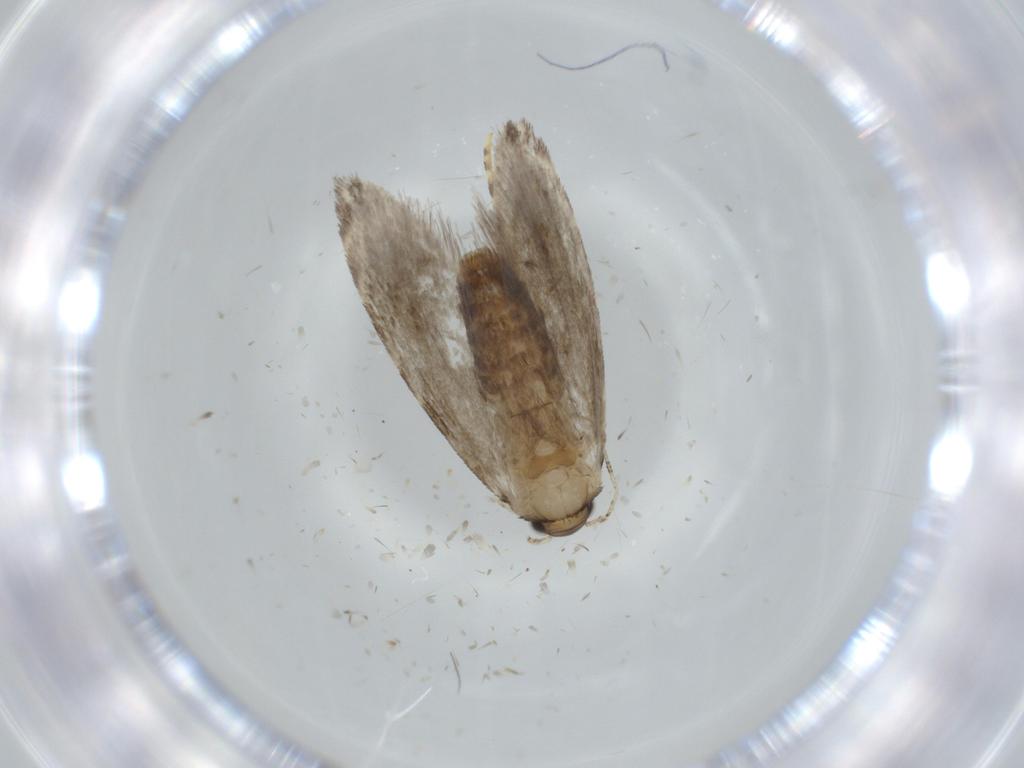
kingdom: Animalia
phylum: Arthropoda
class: Insecta
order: Lepidoptera
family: Tineidae
